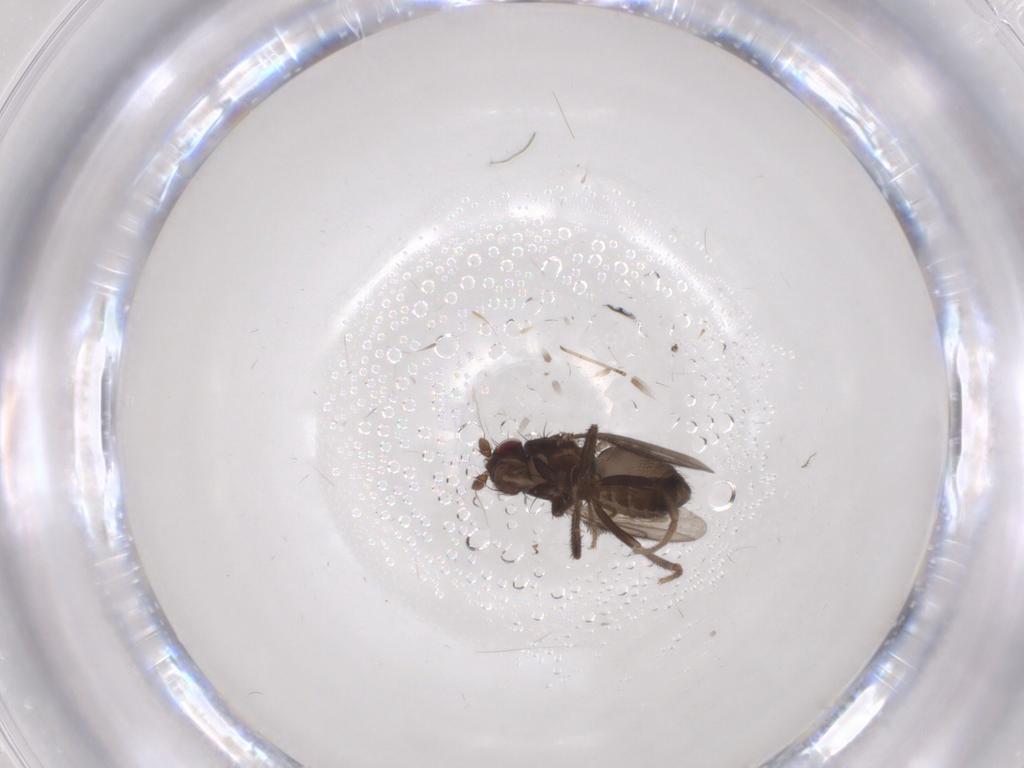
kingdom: Animalia
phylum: Arthropoda
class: Insecta
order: Diptera
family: Sphaeroceridae
